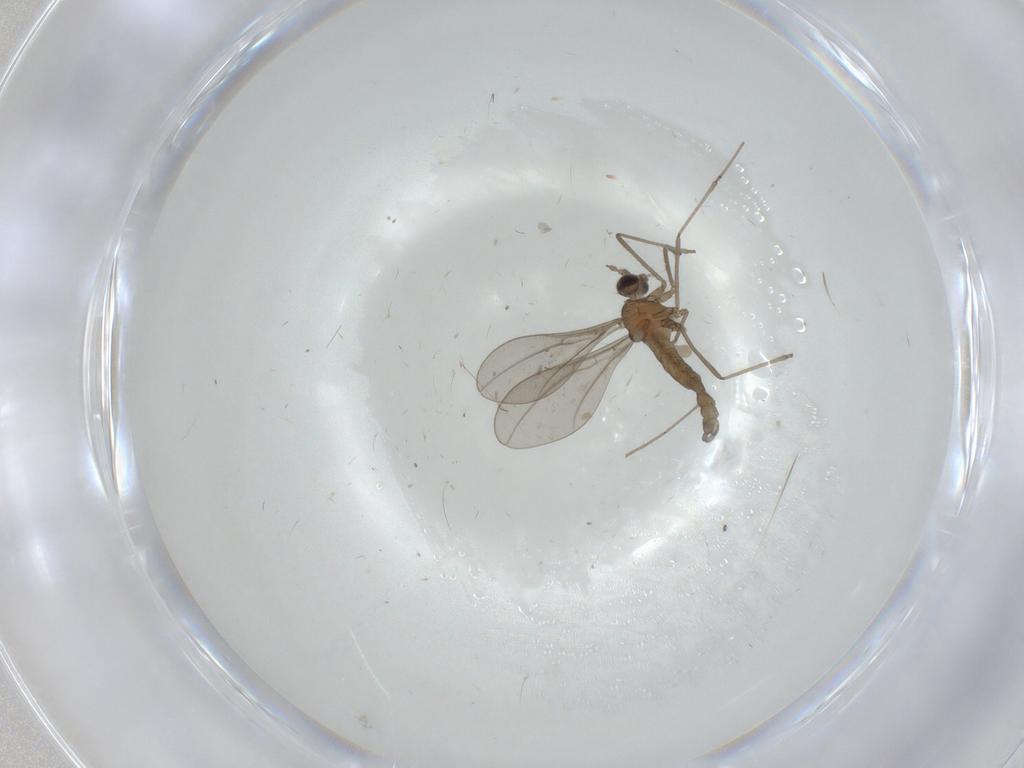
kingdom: Animalia
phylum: Arthropoda
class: Insecta
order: Diptera
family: Cecidomyiidae
